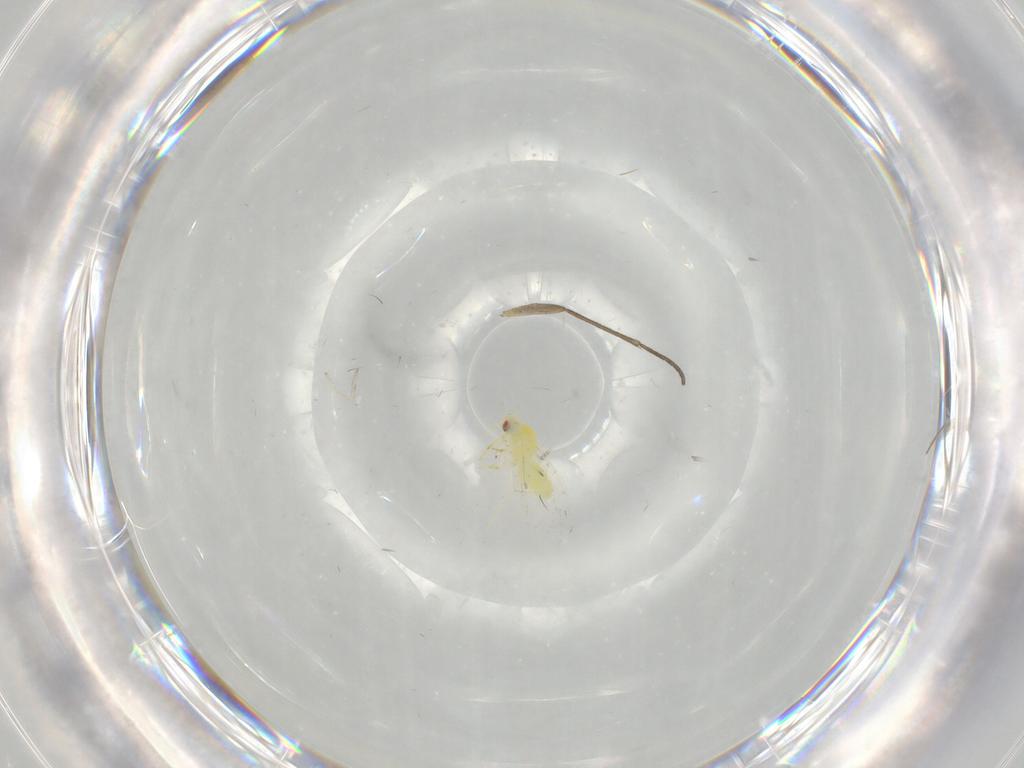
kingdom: Animalia
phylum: Arthropoda
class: Insecta
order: Hemiptera
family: Aleyrodidae
